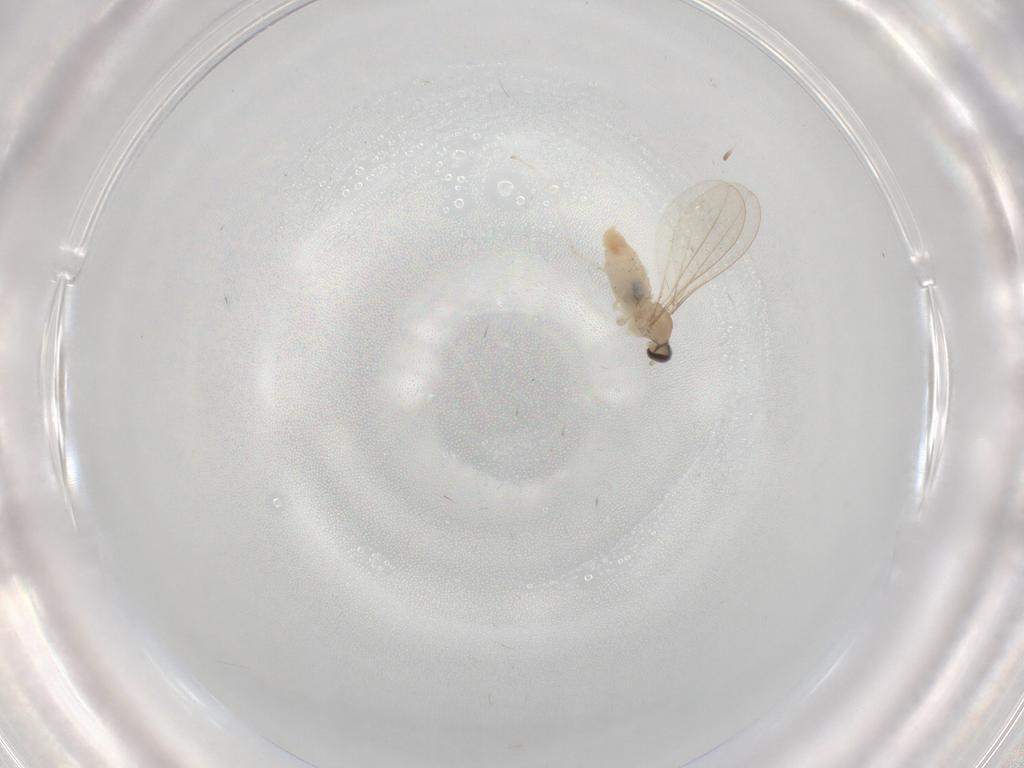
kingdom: Animalia
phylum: Arthropoda
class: Insecta
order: Diptera
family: Cecidomyiidae
